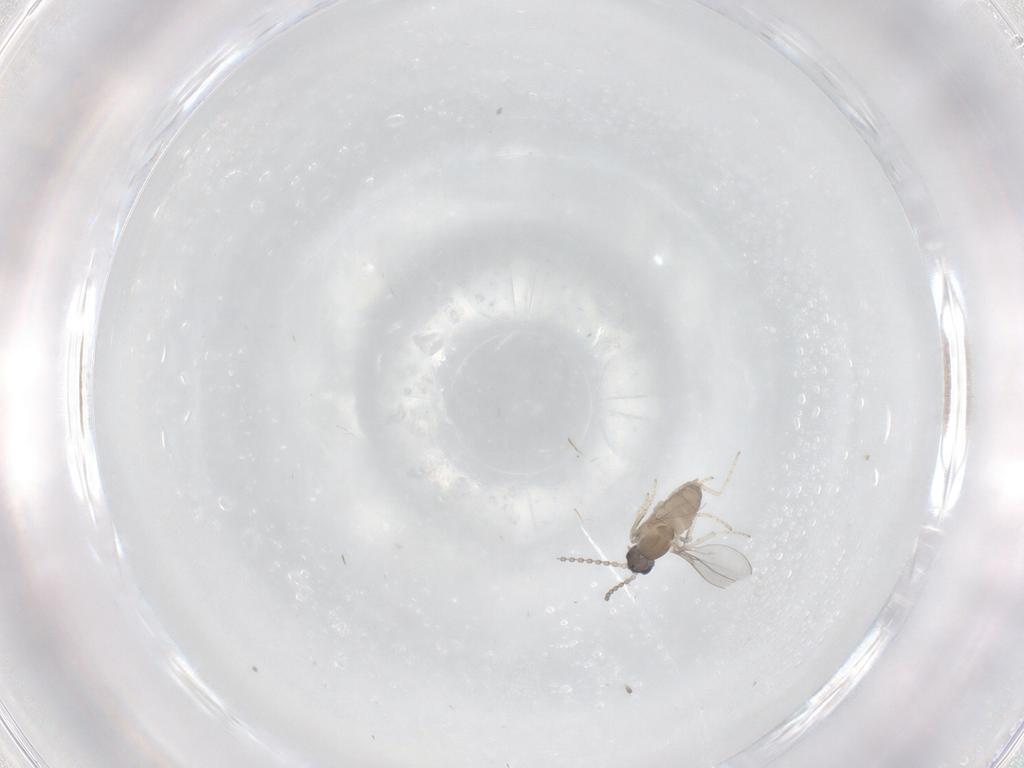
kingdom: Animalia
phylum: Arthropoda
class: Insecta
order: Diptera
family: Cecidomyiidae
